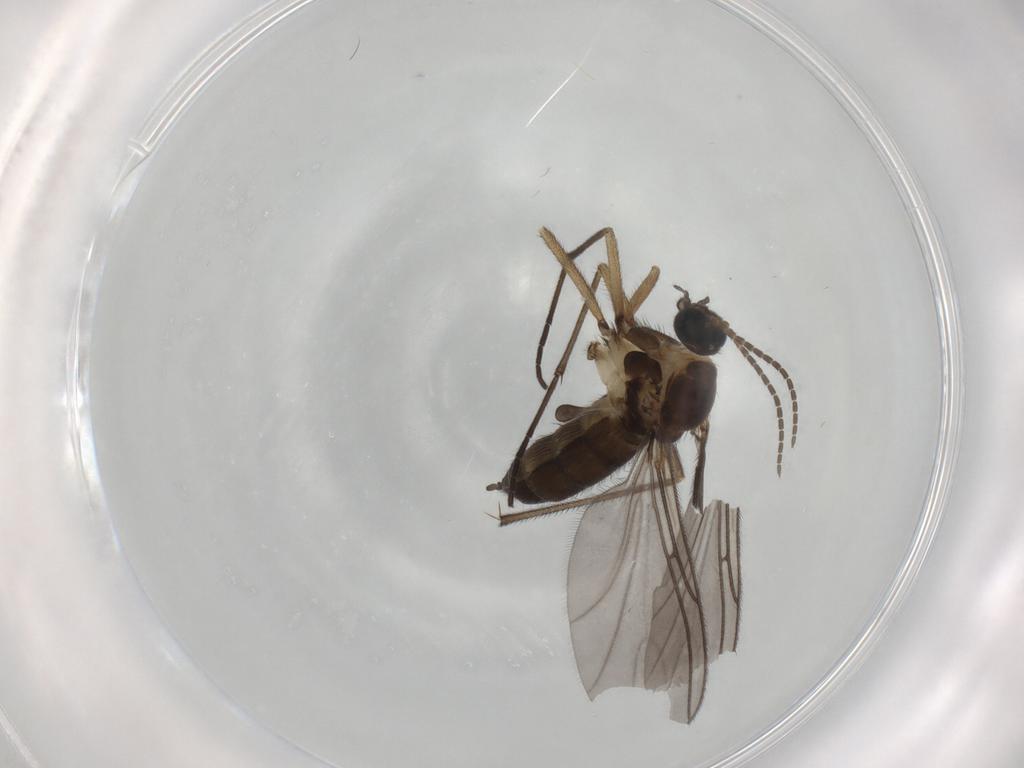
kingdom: Animalia
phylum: Arthropoda
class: Insecta
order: Diptera
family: Sciaridae
